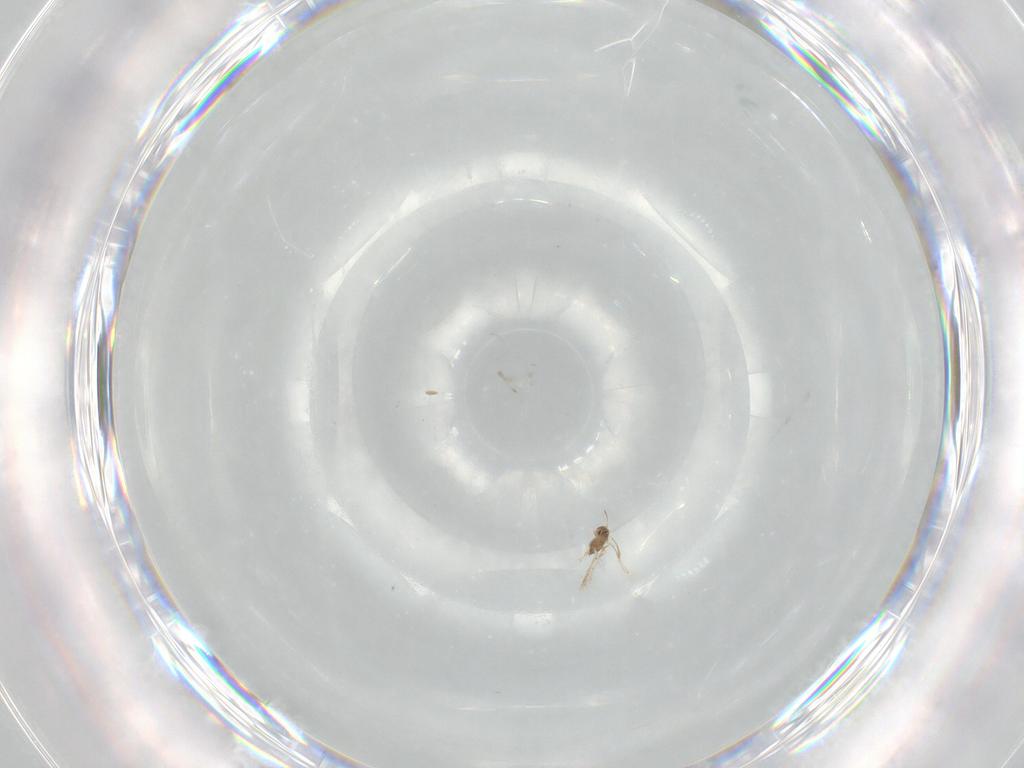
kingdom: Animalia
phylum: Arthropoda
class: Insecta
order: Hymenoptera
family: Mymaridae
